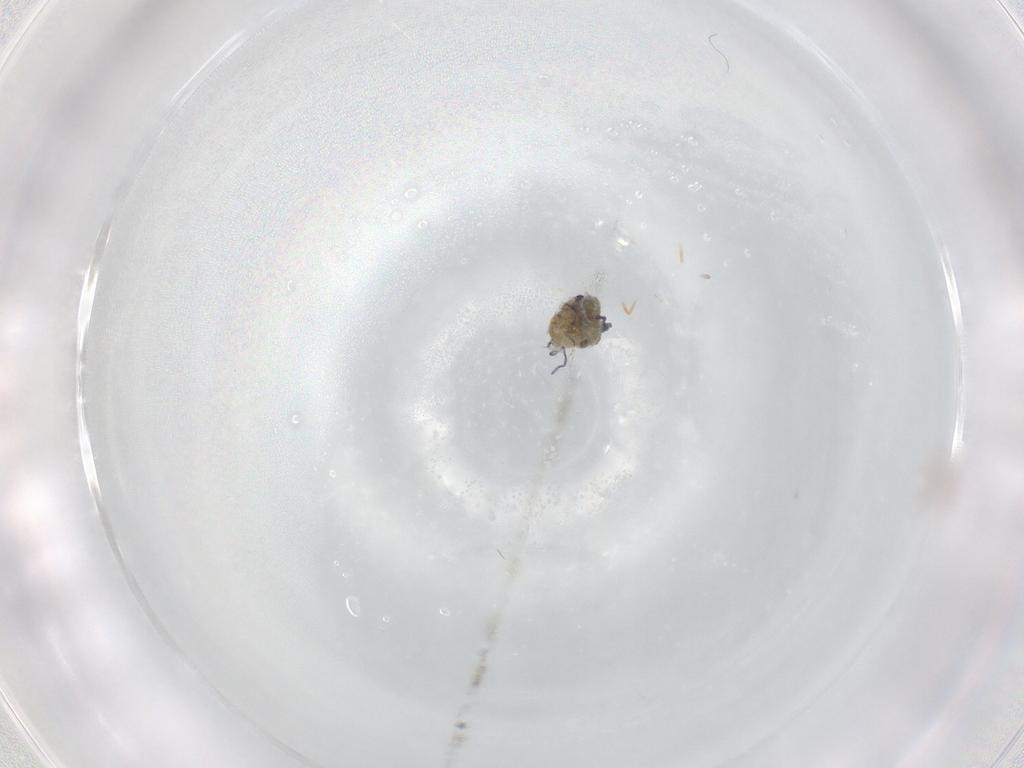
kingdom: Animalia
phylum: Arthropoda
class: Insecta
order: Lepidoptera
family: Geometridae
